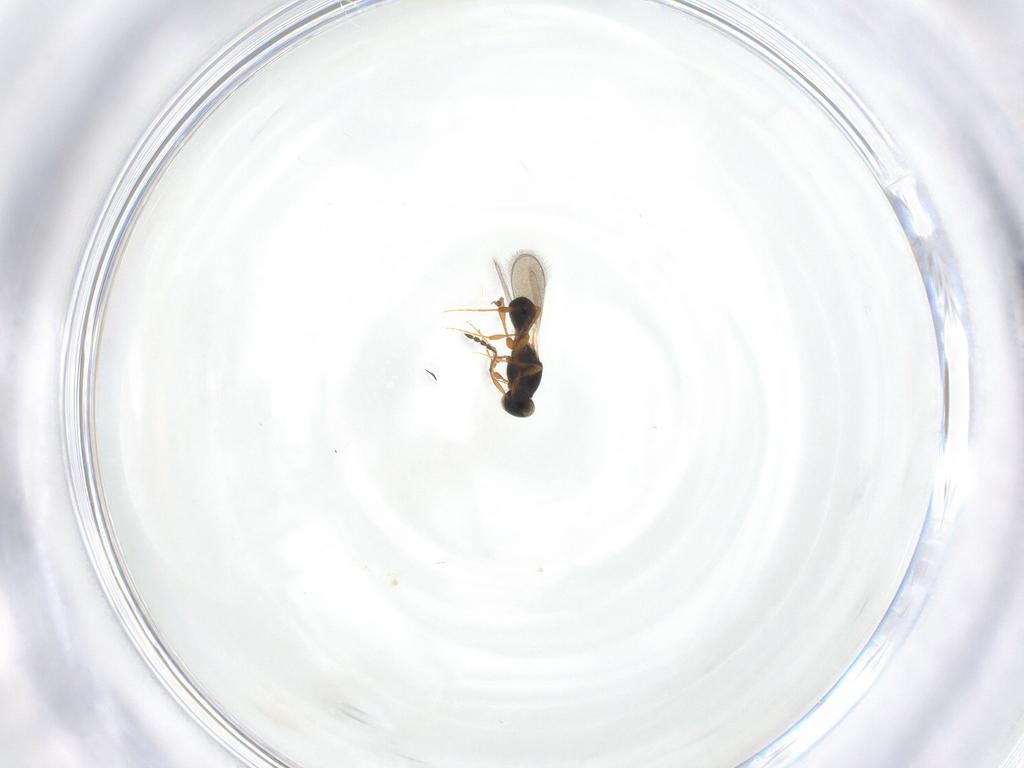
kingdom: Animalia
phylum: Arthropoda
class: Insecta
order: Hymenoptera
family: Platygastridae
